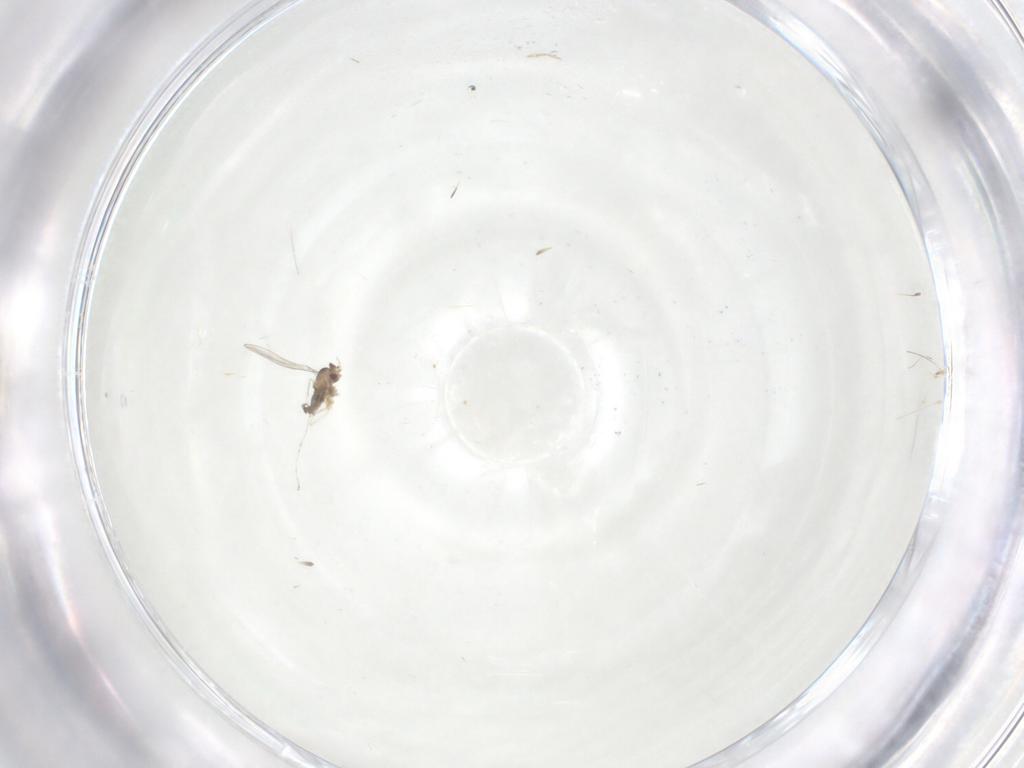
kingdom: Animalia
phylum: Arthropoda
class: Insecta
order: Diptera
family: Cecidomyiidae
